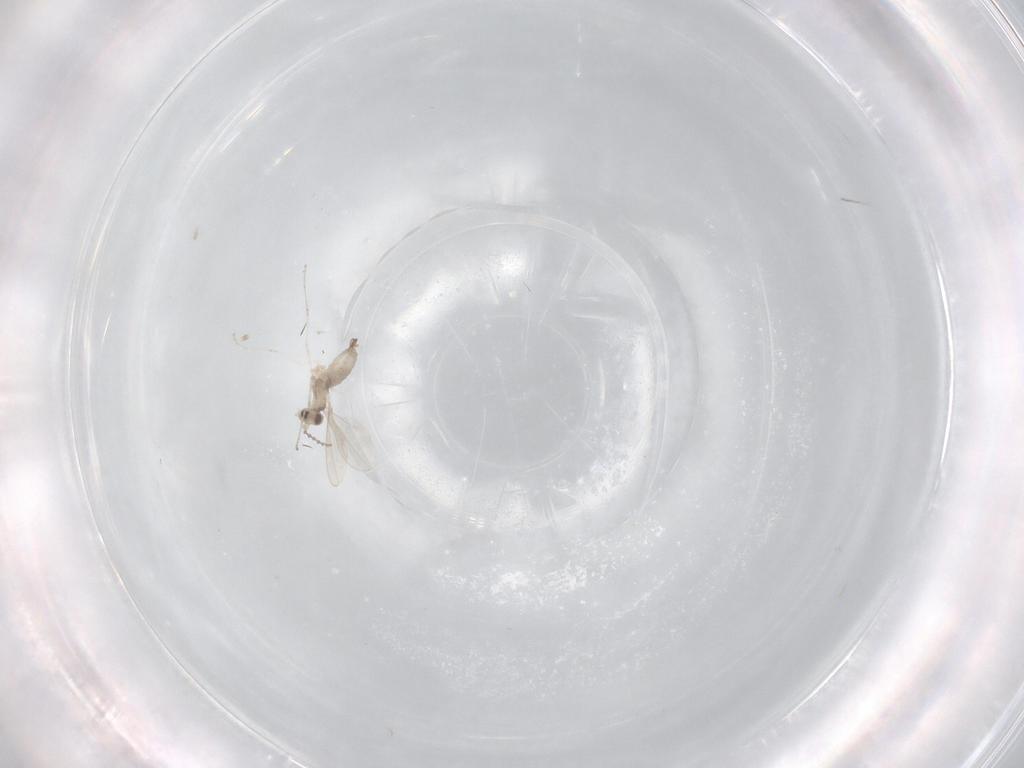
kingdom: Animalia
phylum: Arthropoda
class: Insecta
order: Diptera
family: Cecidomyiidae
